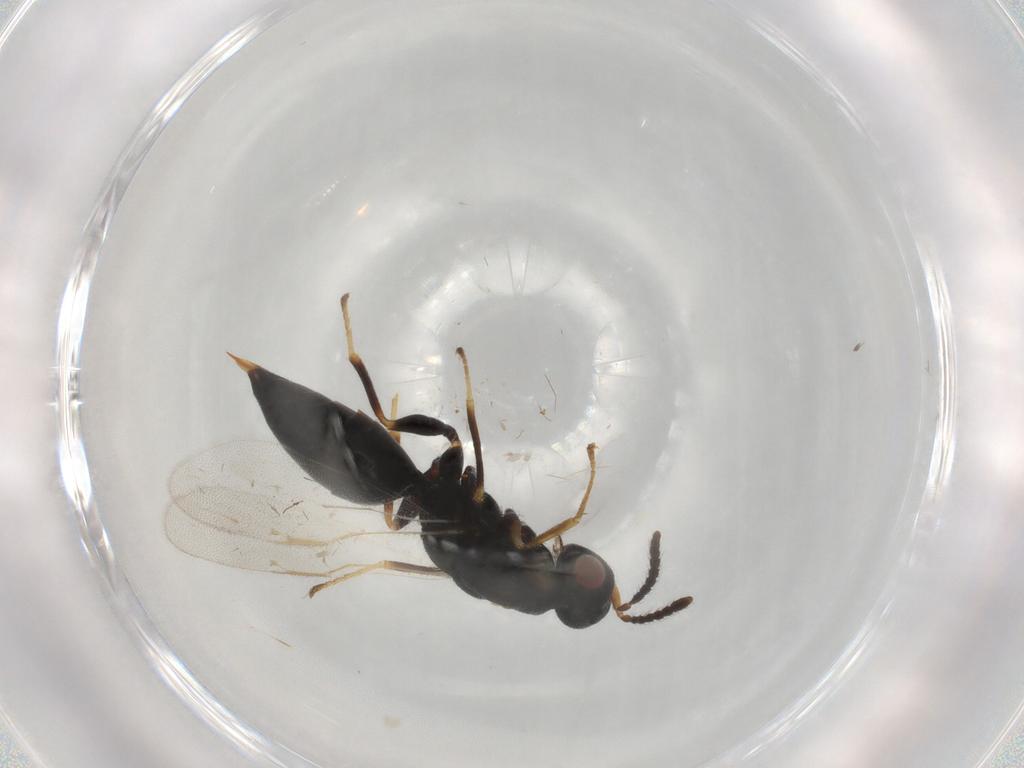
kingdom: Animalia
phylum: Arthropoda
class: Insecta
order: Hymenoptera
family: Eurytomidae
